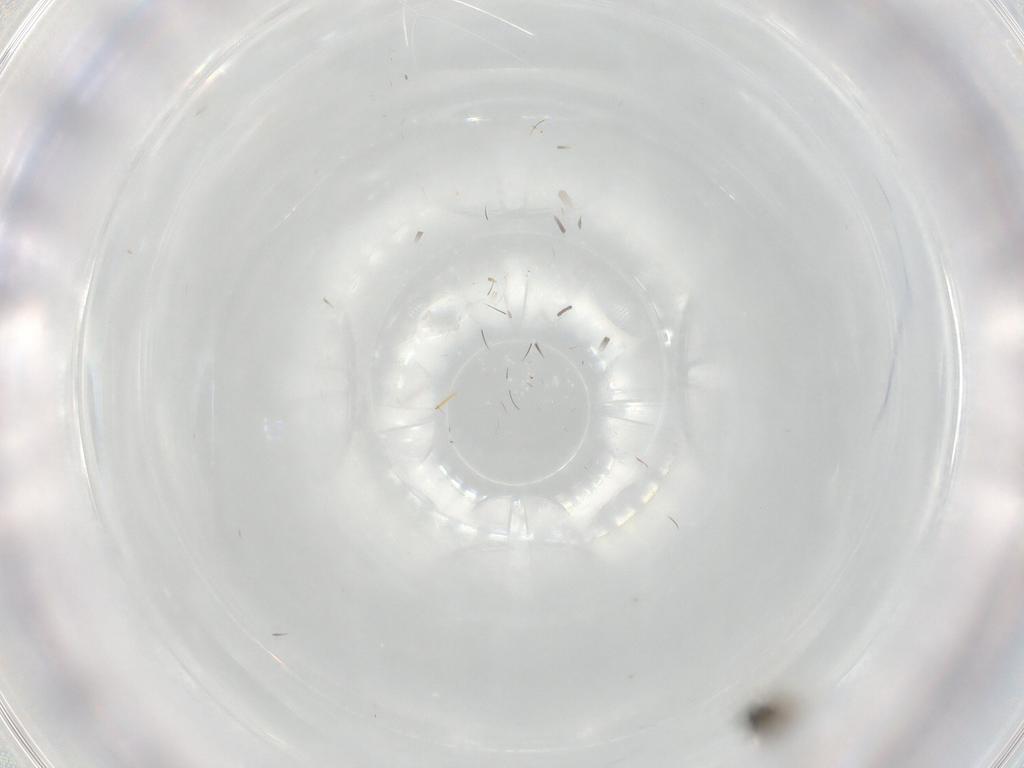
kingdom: Animalia
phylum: Arthropoda
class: Insecta
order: Diptera
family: Cecidomyiidae
